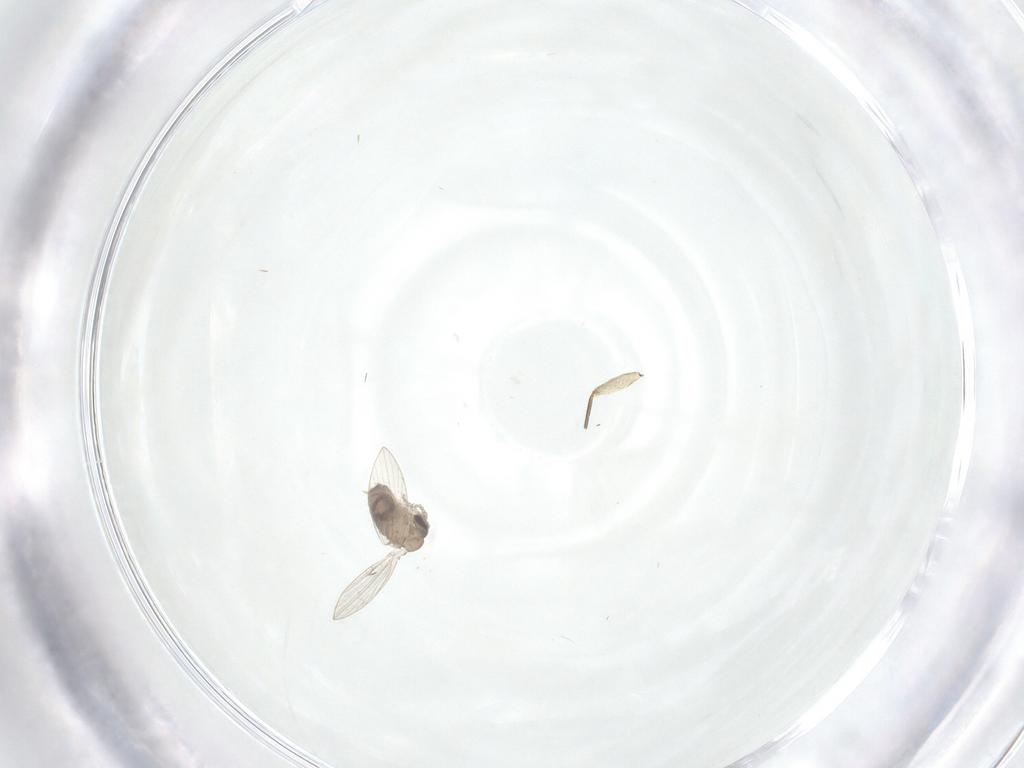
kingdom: Animalia
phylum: Arthropoda
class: Insecta
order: Diptera
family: Psychodidae
